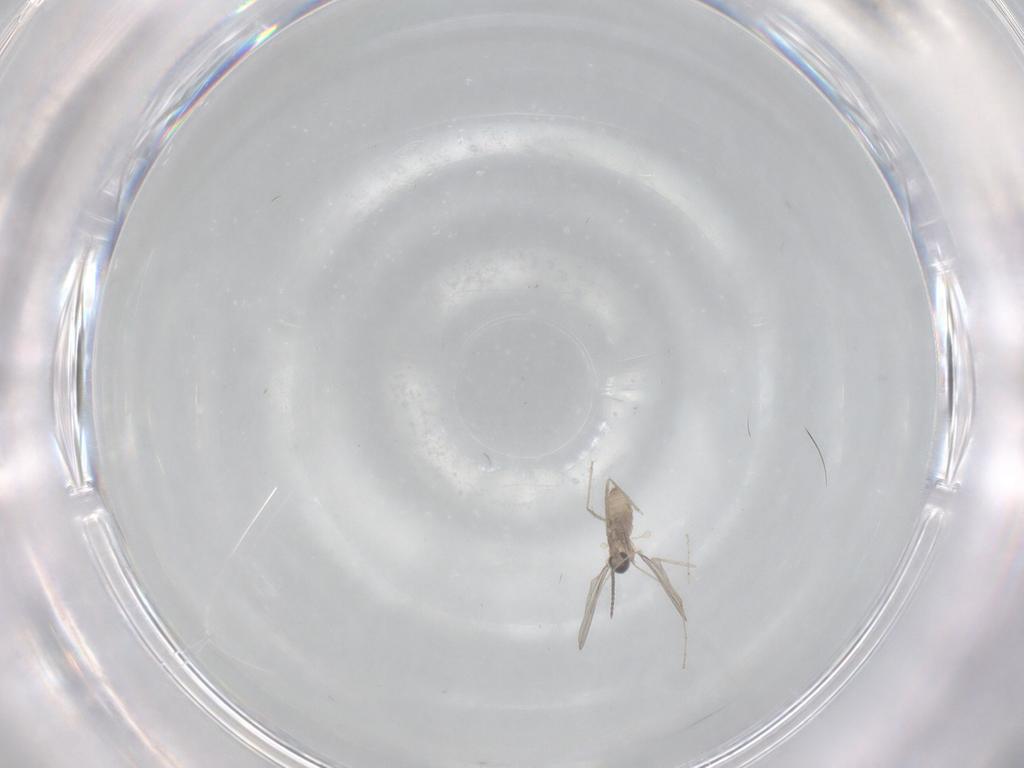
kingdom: Animalia
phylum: Arthropoda
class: Insecta
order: Diptera
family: Cecidomyiidae
